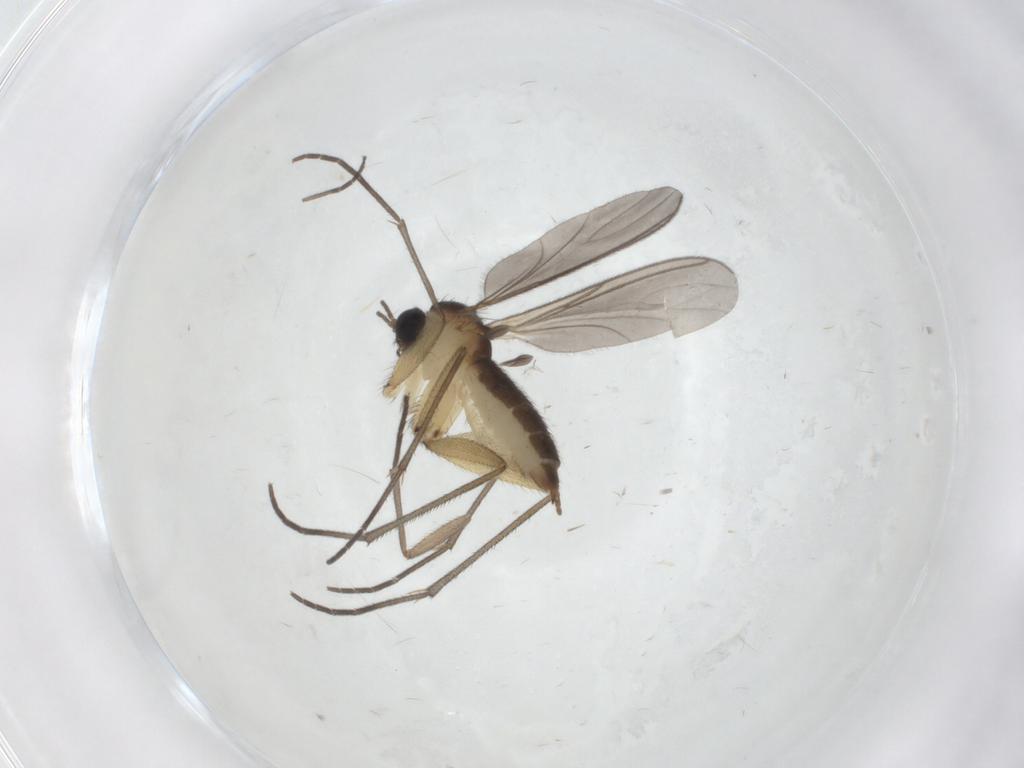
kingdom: Animalia
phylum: Arthropoda
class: Insecta
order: Diptera
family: Sciaridae
